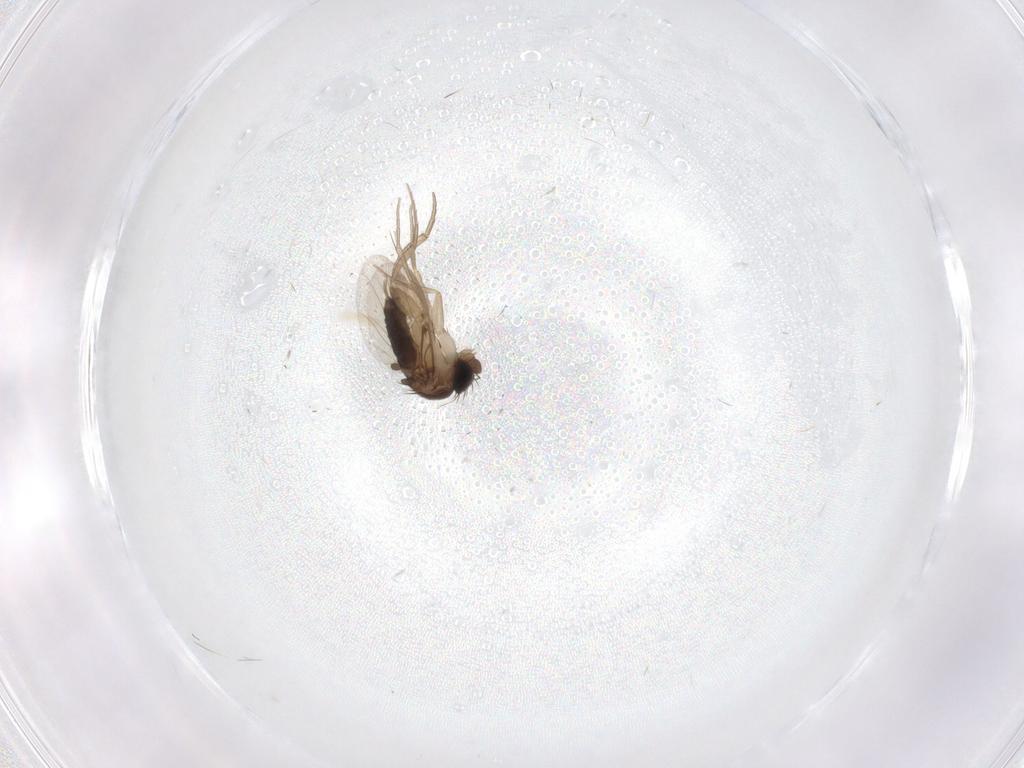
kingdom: Animalia
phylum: Arthropoda
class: Insecta
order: Diptera
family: Phoridae
